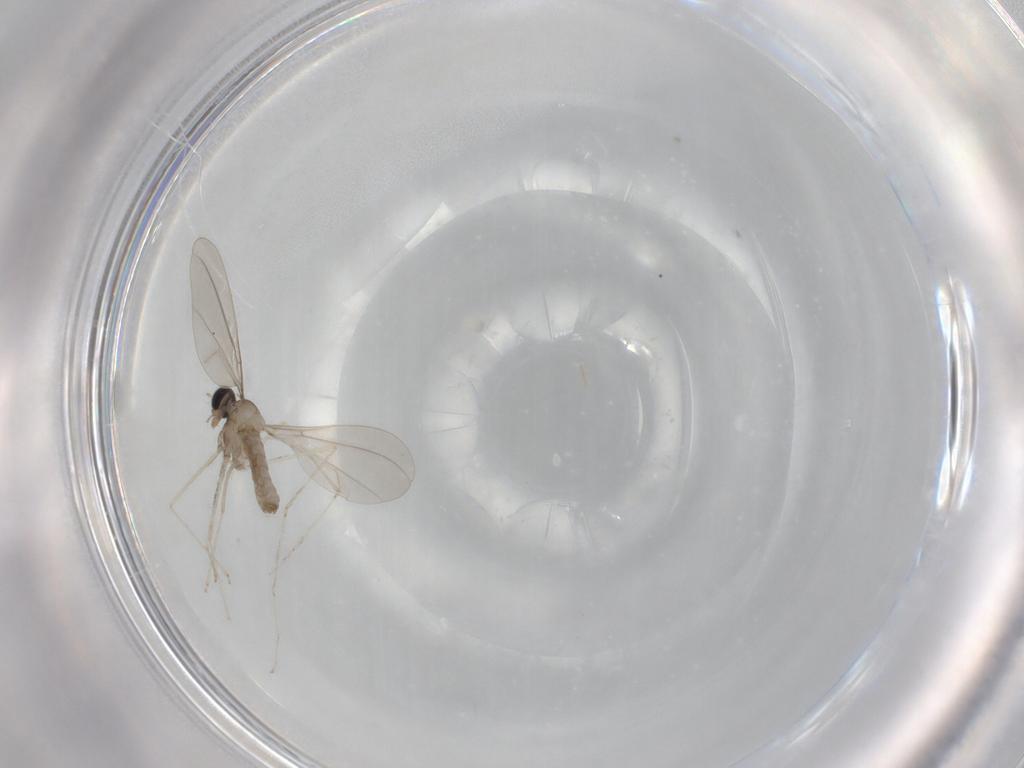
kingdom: Animalia
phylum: Arthropoda
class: Insecta
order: Diptera
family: Cecidomyiidae
